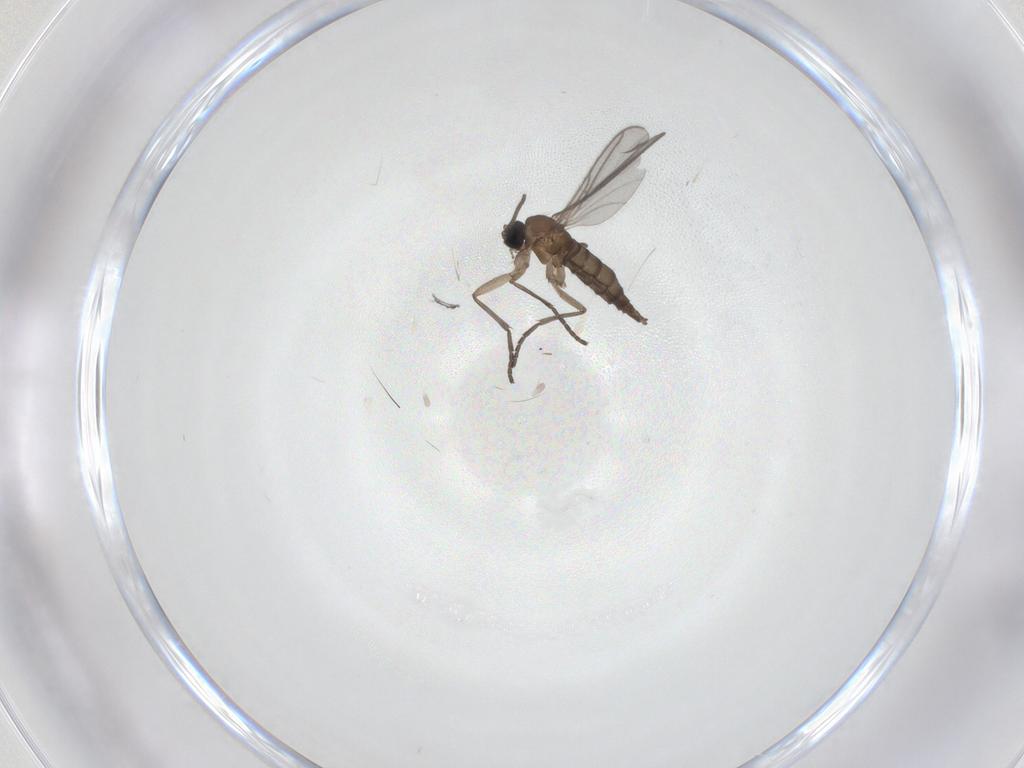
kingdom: Animalia
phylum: Arthropoda
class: Insecta
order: Diptera
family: Sciaridae
